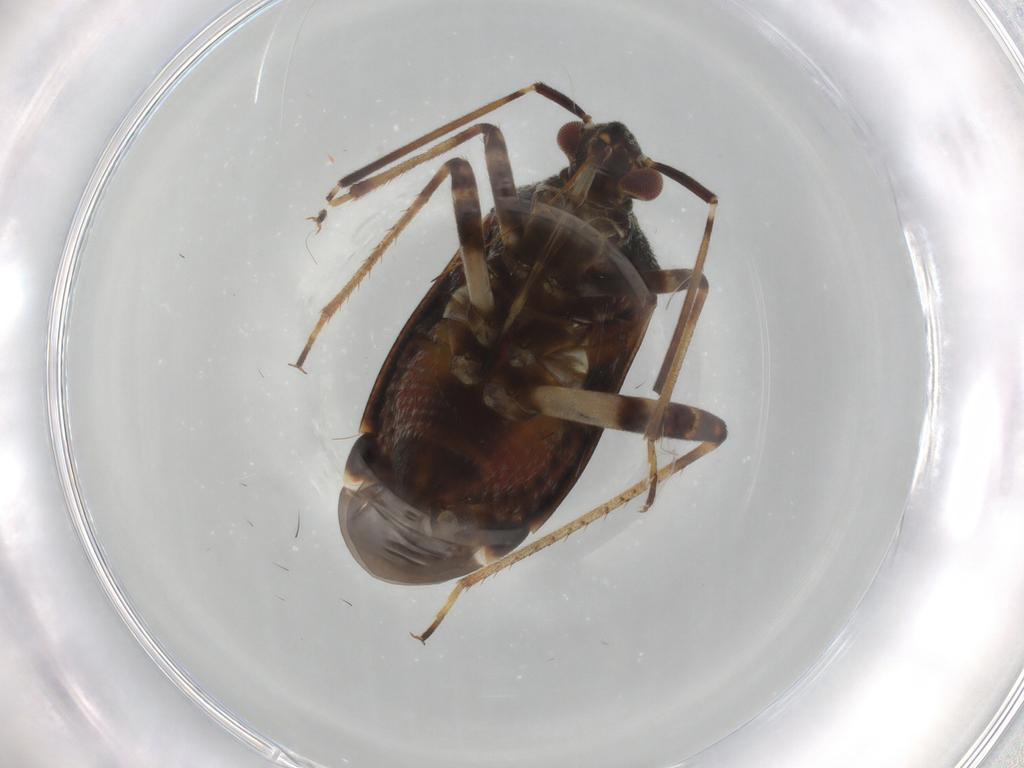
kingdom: Animalia
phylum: Arthropoda
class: Insecta
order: Hemiptera
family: Miridae
